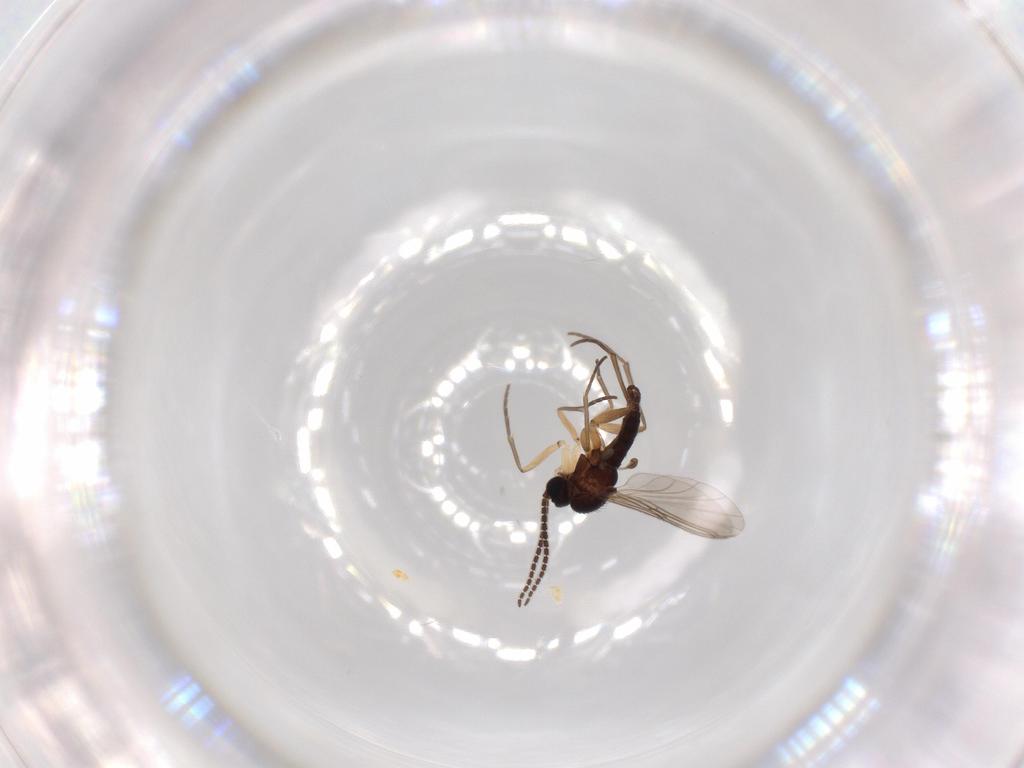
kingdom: Animalia
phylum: Arthropoda
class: Insecta
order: Diptera
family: Sciaridae
